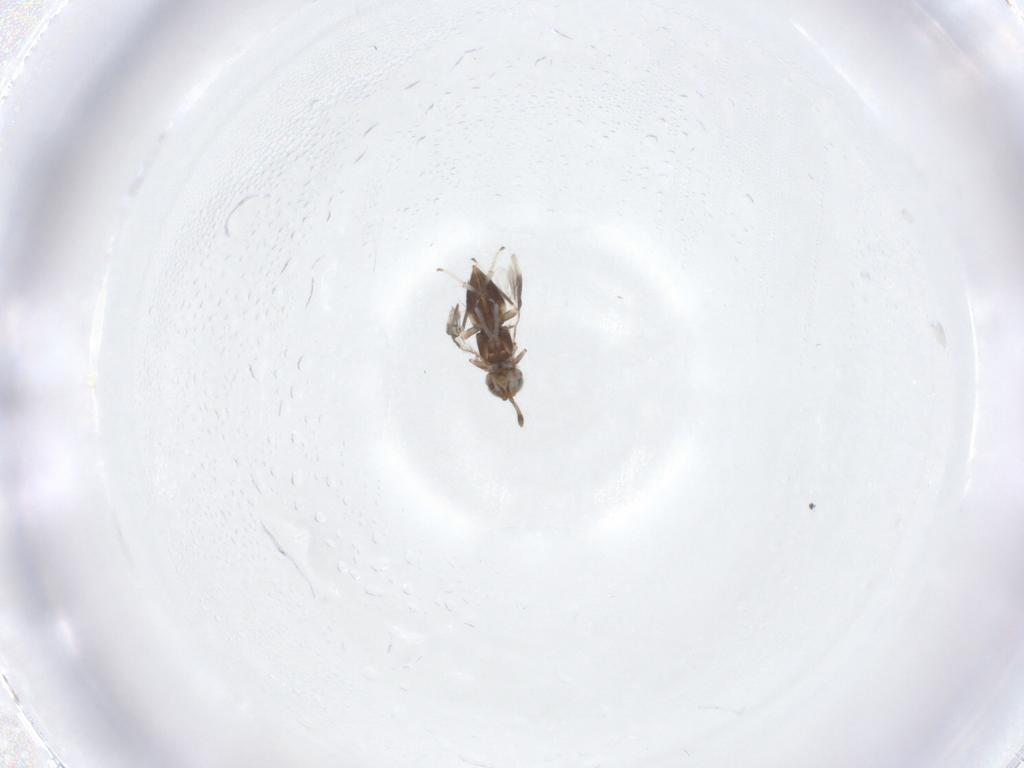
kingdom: Animalia
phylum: Arthropoda
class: Insecta
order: Hymenoptera
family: Encyrtidae
